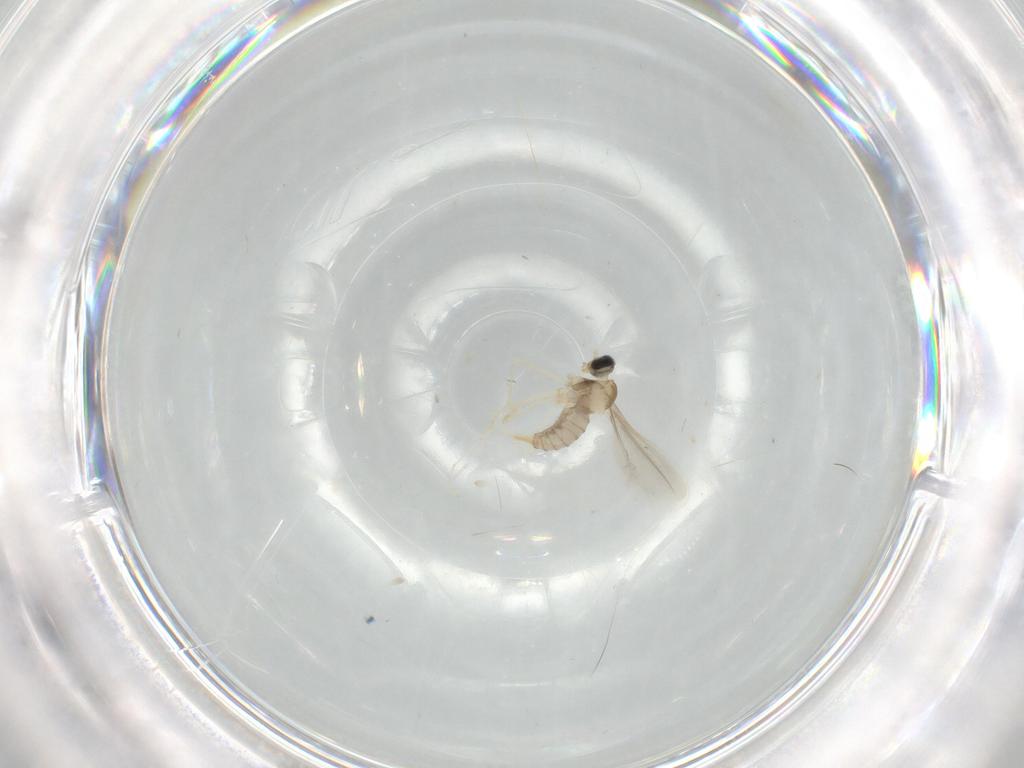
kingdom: Animalia
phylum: Arthropoda
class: Insecta
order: Diptera
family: Cecidomyiidae
